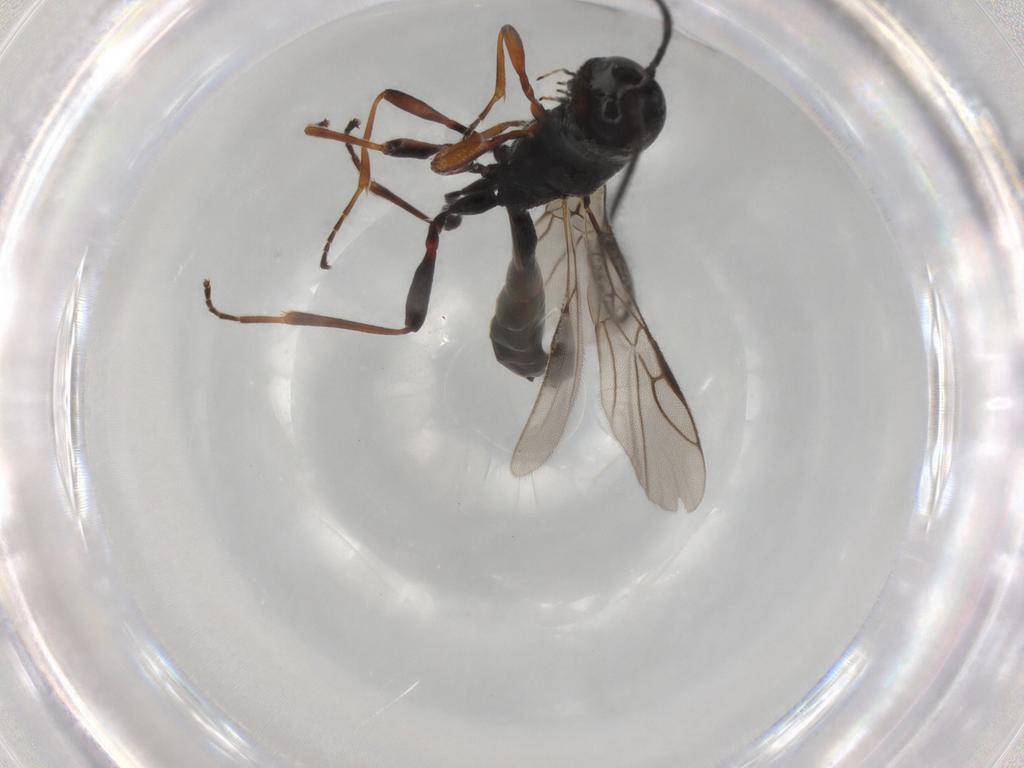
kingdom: Animalia
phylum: Arthropoda
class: Insecta
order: Hymenoptera
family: Braconidae
